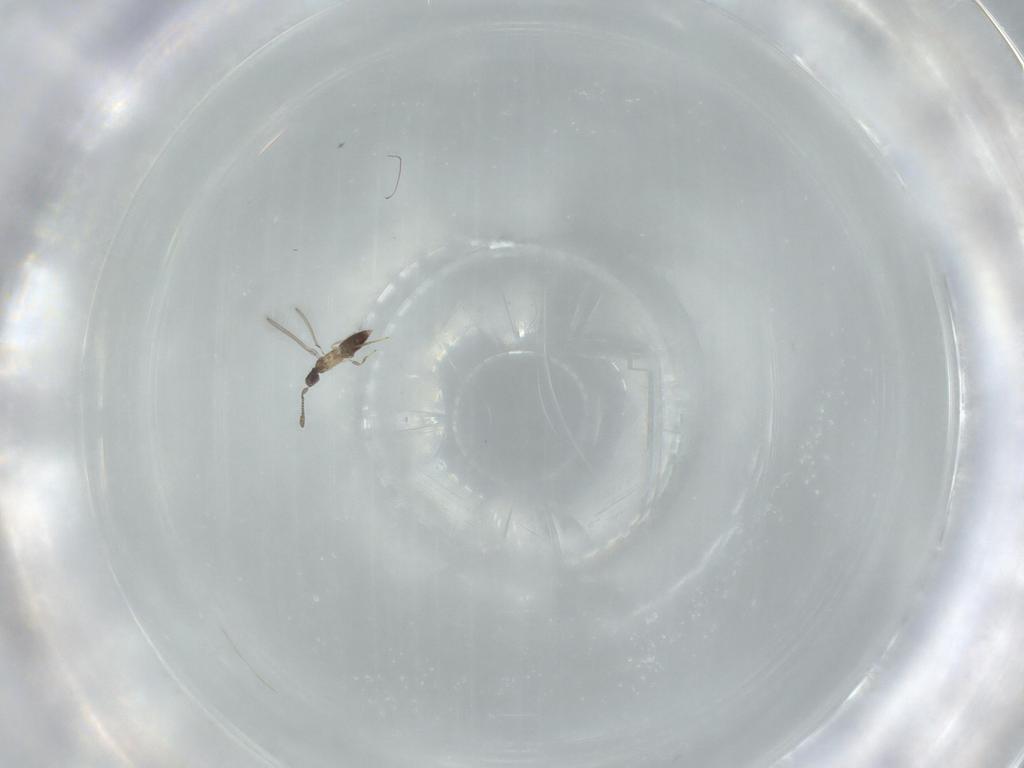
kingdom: Animalia
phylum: Arthropoda
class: Insecta
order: Hymenoptera
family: Mymaridae
